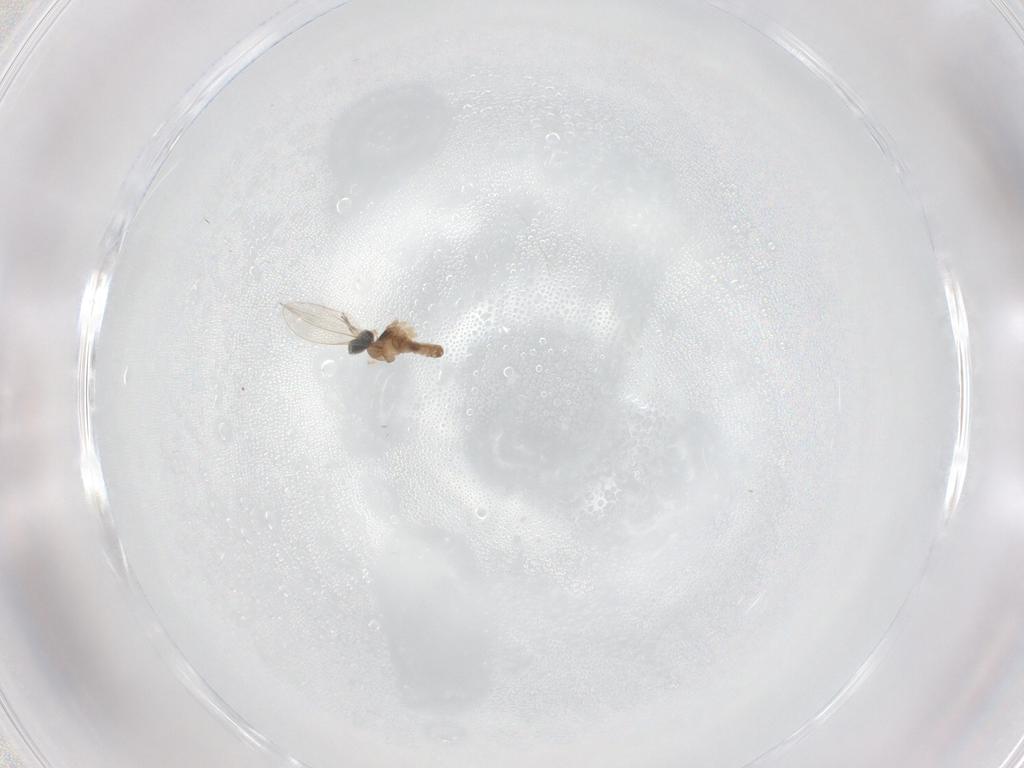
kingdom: Animalia
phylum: Arthropoda
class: Insecta
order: Diptera
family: Cecidomyiidae
